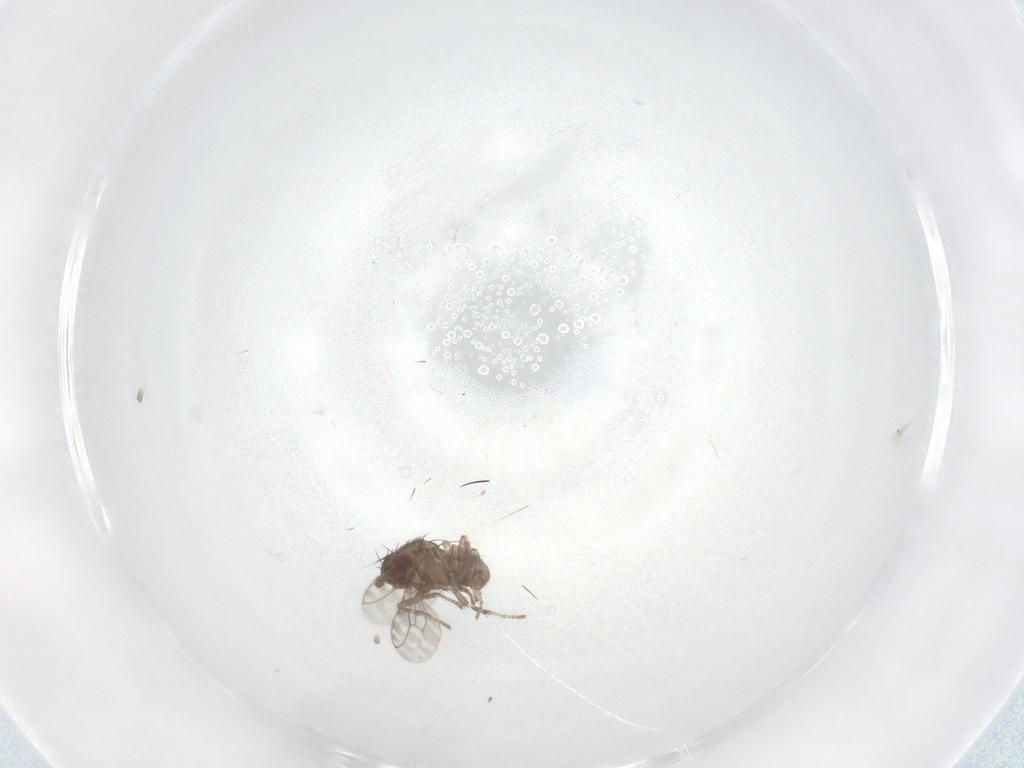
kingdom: Animalia
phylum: Arthropoda
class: Insecta
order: Diptera
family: Sphaeroceridae
